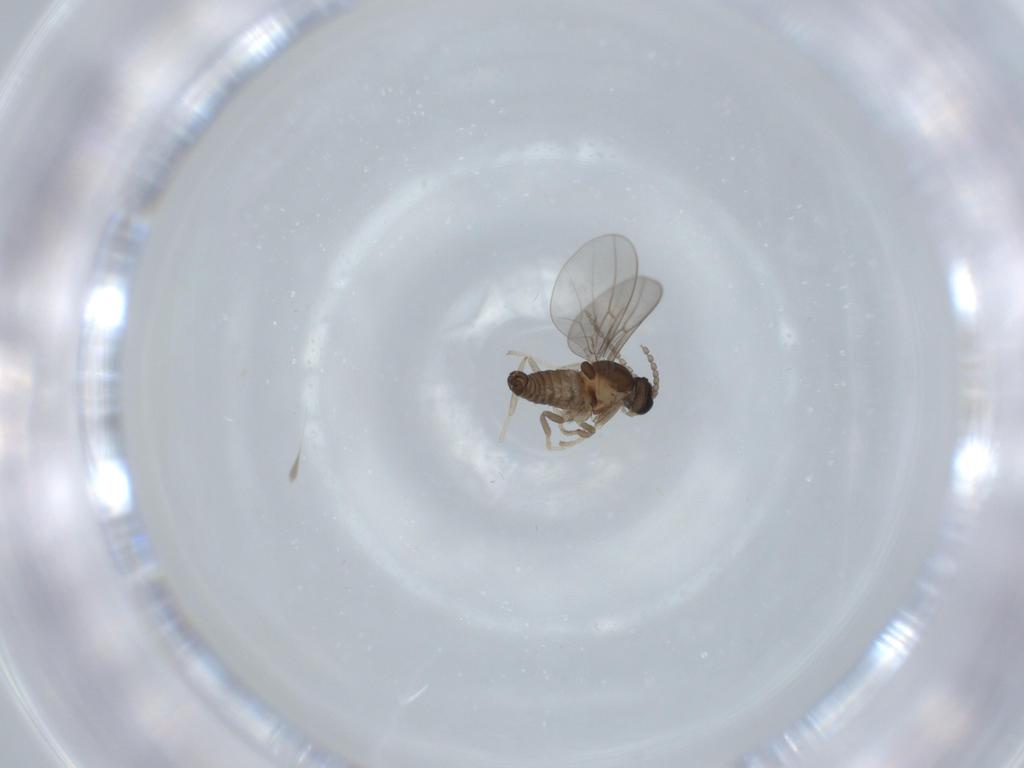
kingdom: Animalia
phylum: Arthropoda
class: Insecta
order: Diptera
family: Cecidomyiidae
